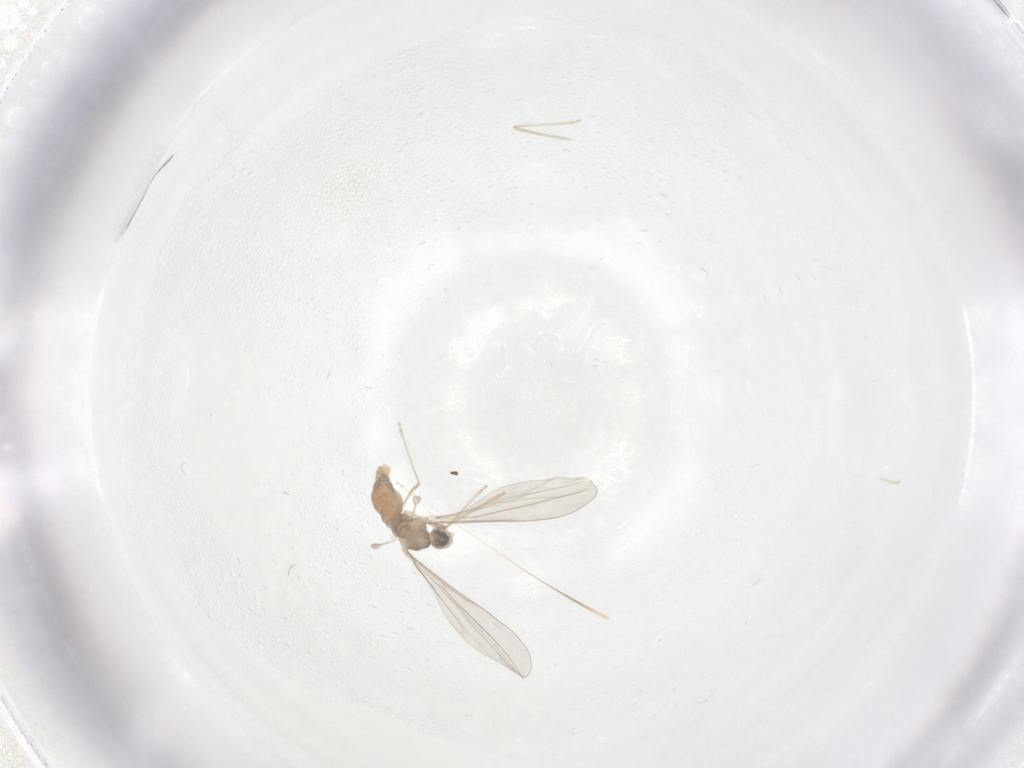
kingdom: Animalia
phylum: Arthropoda
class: Insecta
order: Diptera
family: Cecidomyiidae
